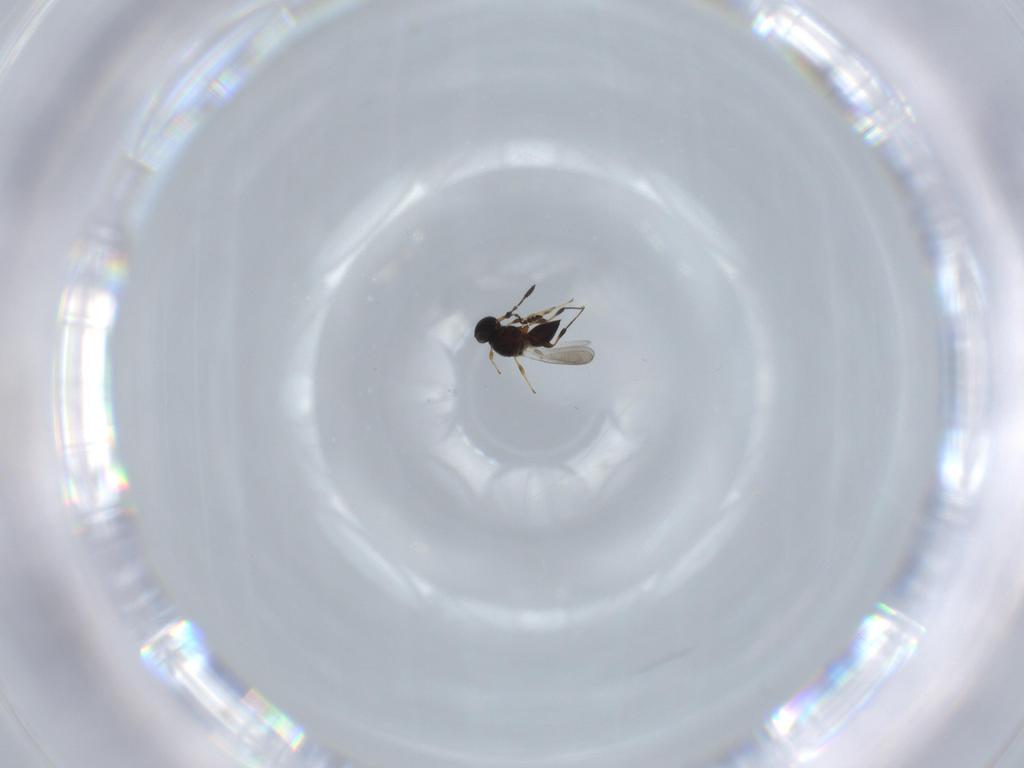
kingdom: Animalia
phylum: Arthropoda
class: Insecta
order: Hymenoptera
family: Platygastridae
